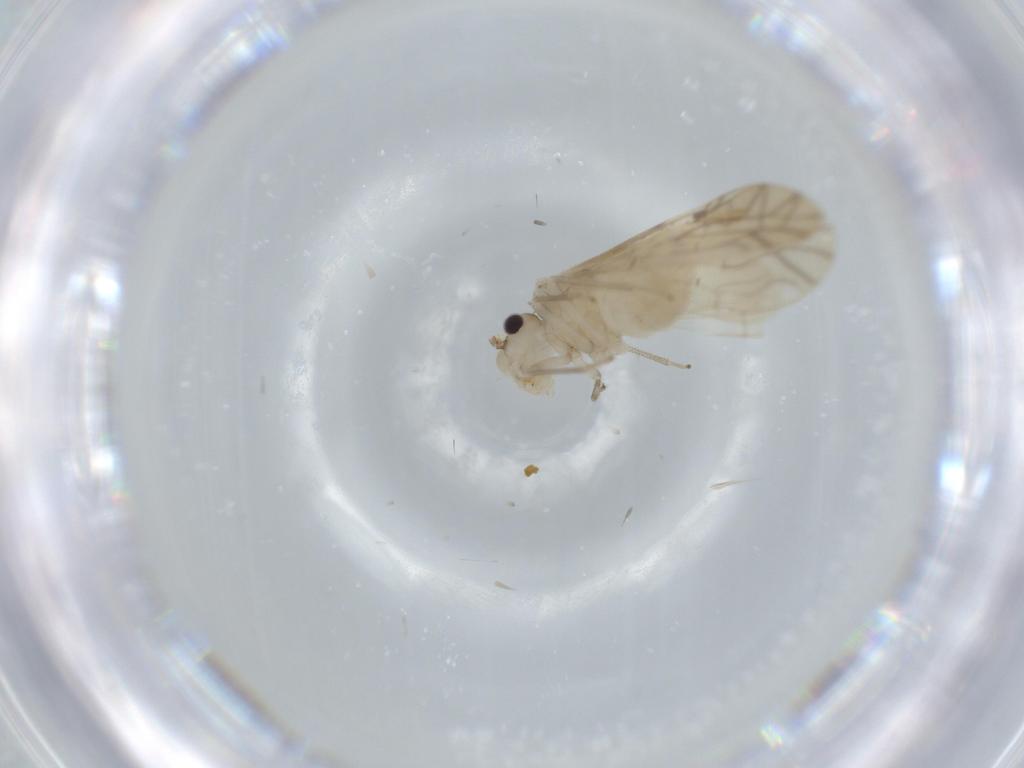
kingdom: Animalia
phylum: Arthropoda
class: Insecta
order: Psocodea
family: Caeciliusidae
